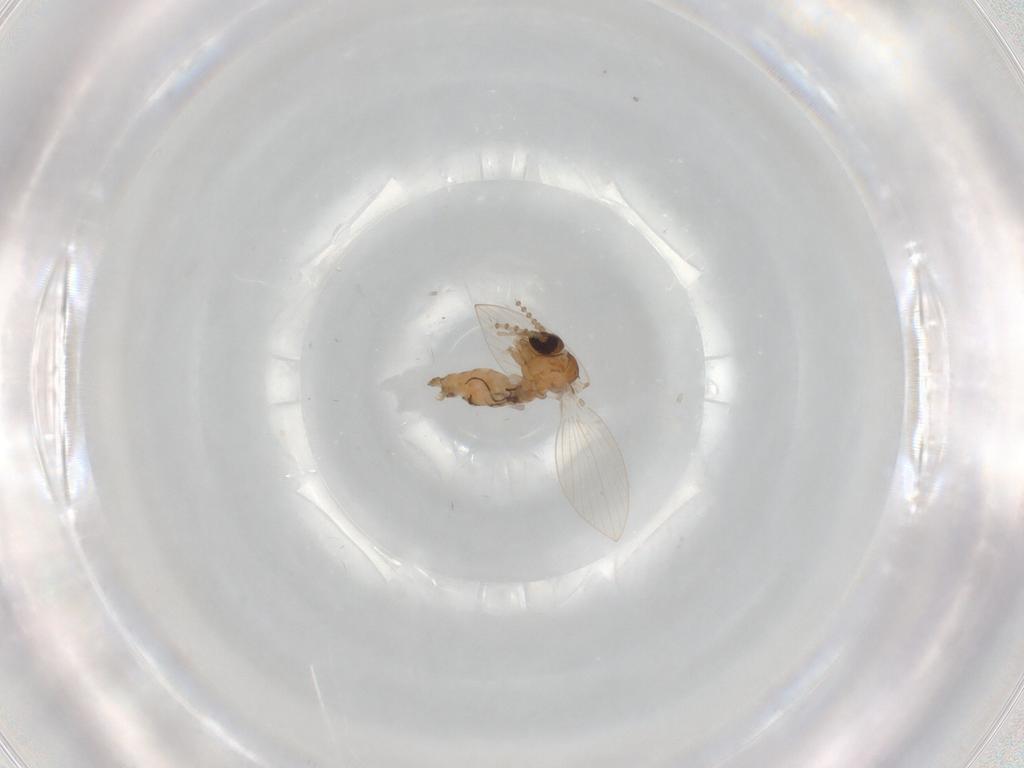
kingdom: Animalia
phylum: Arthropoda
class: Insecta
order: Diptera
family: Psychodidae
